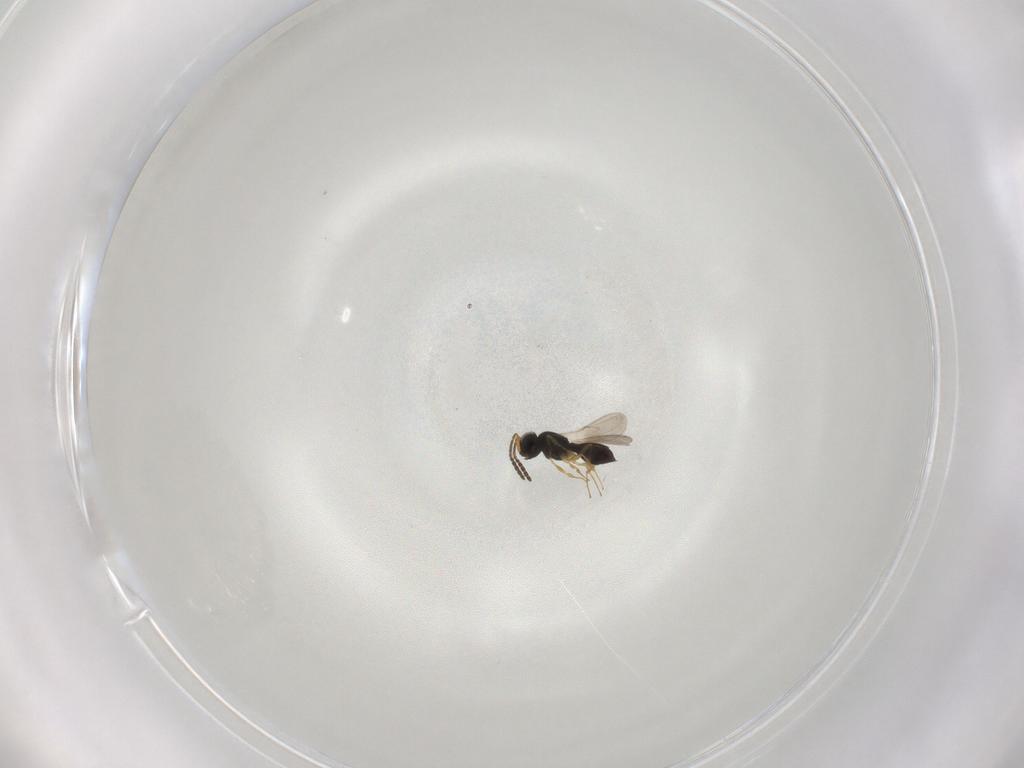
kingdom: Animalia
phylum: Arthropoda
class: Insecta
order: Hymenoptera
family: Scelionidae
